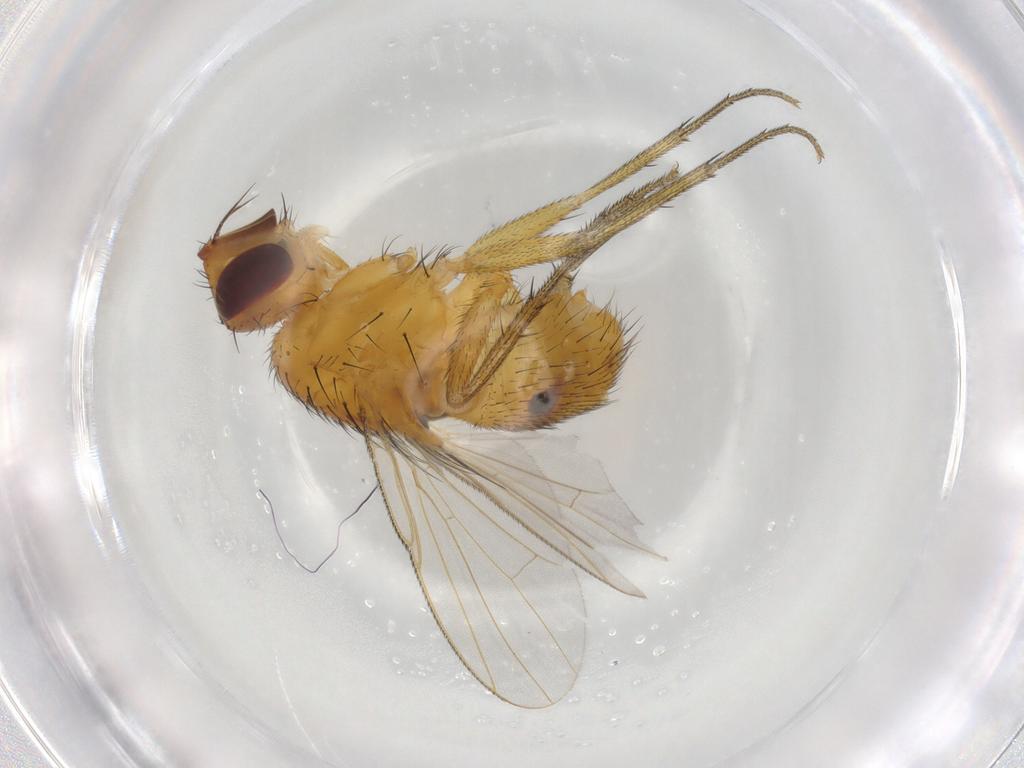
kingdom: Animalia
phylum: Arthropoda
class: Insecta
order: Diptera
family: Muscidae
